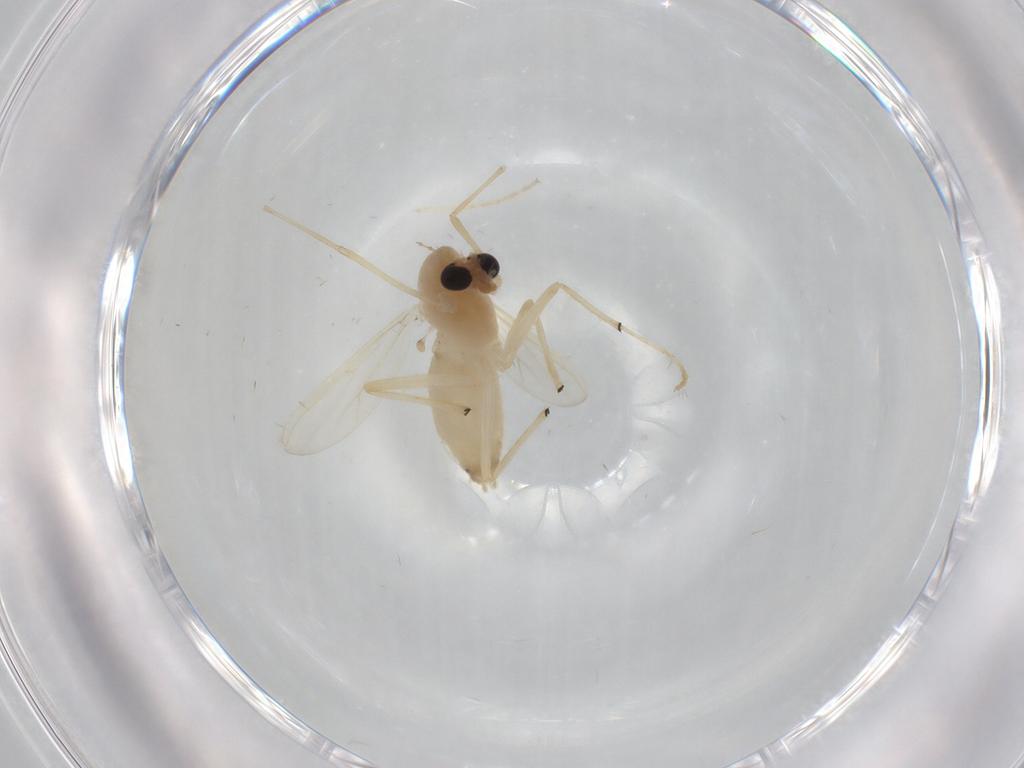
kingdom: Animalia
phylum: Arthropoda
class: Insecta
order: Diptera
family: Chironomidae
